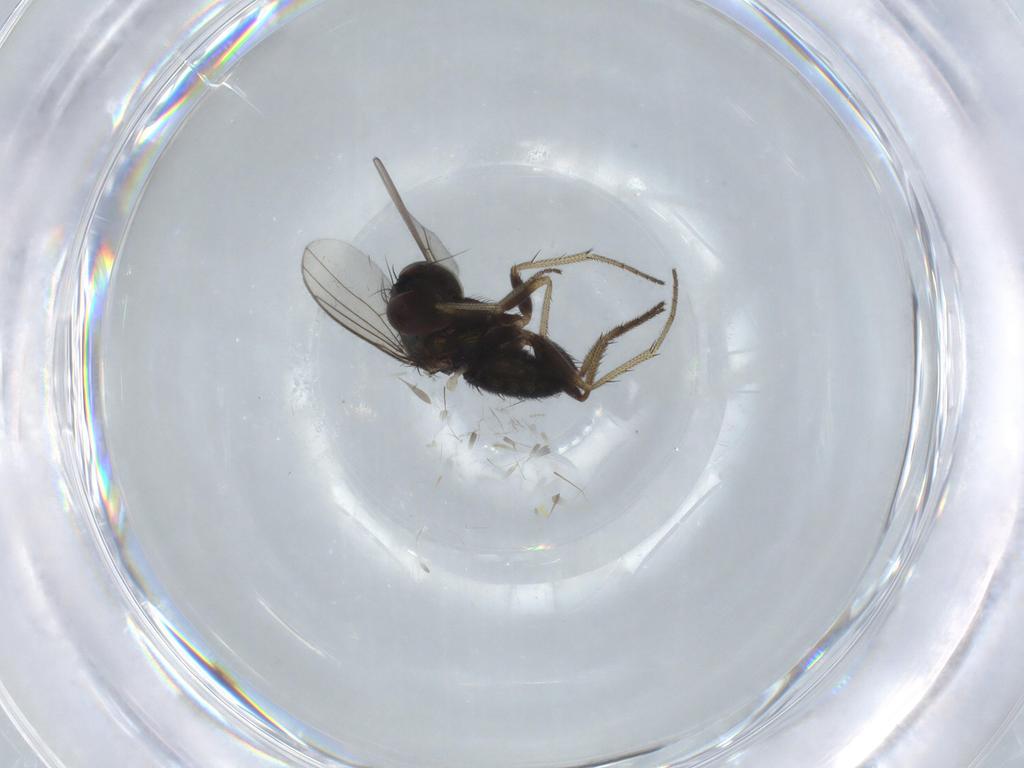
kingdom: Animalia
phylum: Arthropoda
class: Insecta
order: Diptera
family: Dolichopodidae
